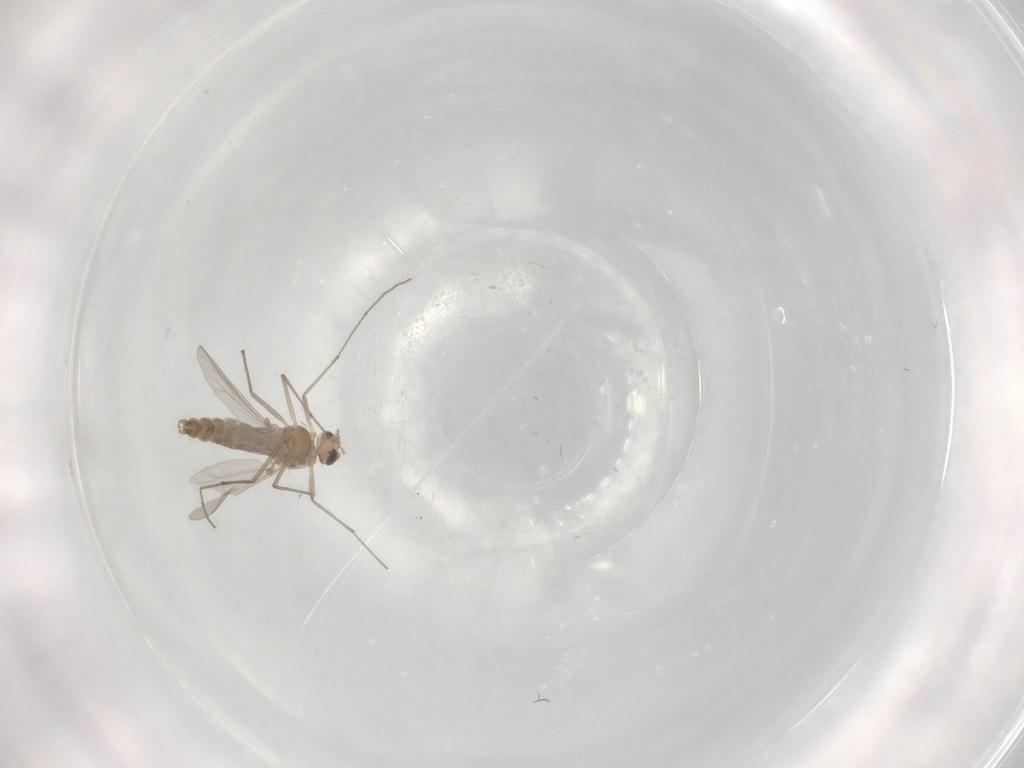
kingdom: Animalia
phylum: Arthropoda
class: Insecta
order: Diptera
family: Chironomidae
